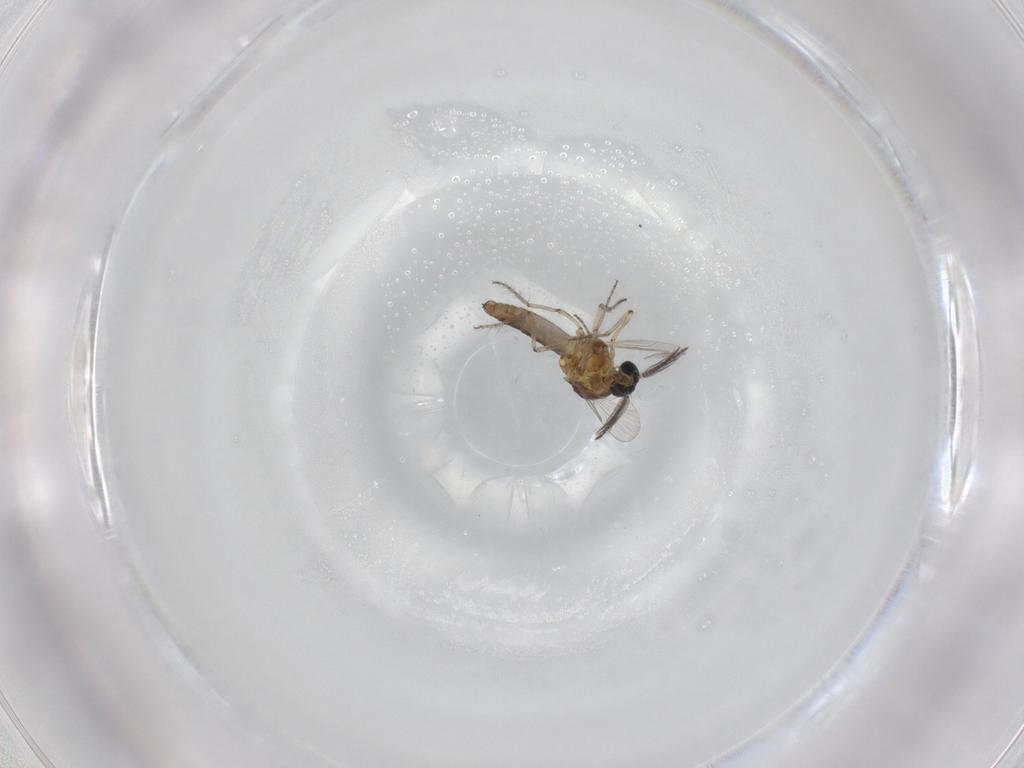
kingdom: Animalia
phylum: Arthropoda
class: Insecta
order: Diptera
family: Ceratopogonidae
